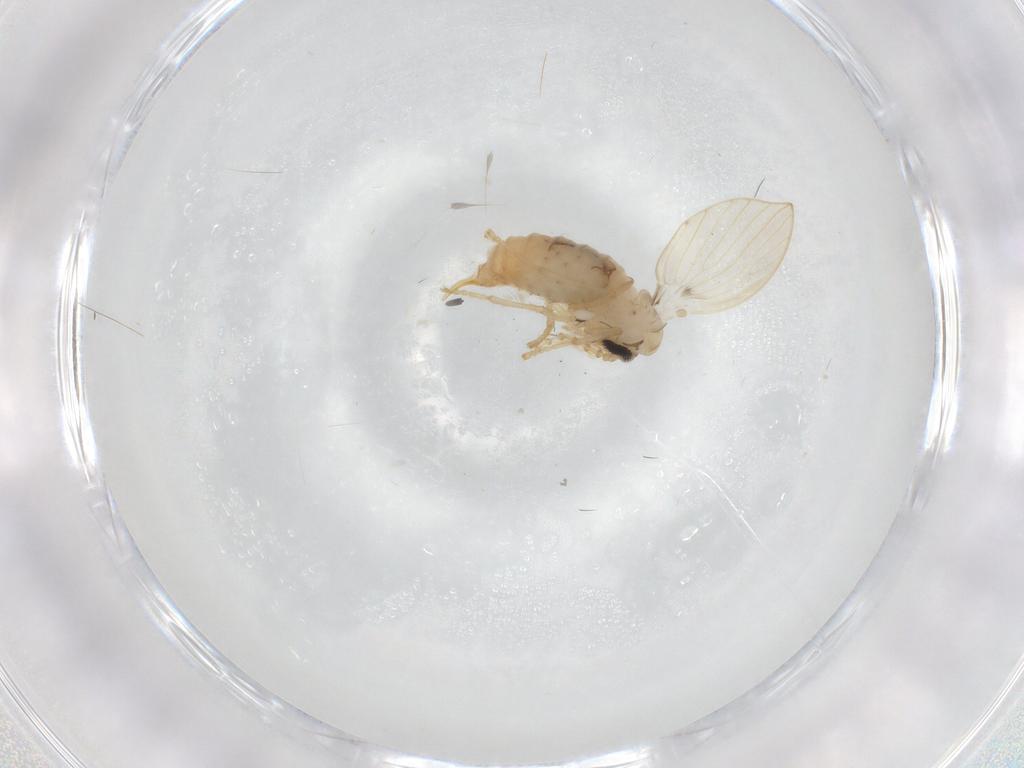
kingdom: Animalia
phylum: Arthropoda
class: Insecta
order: Diptera
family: Psychodidae
